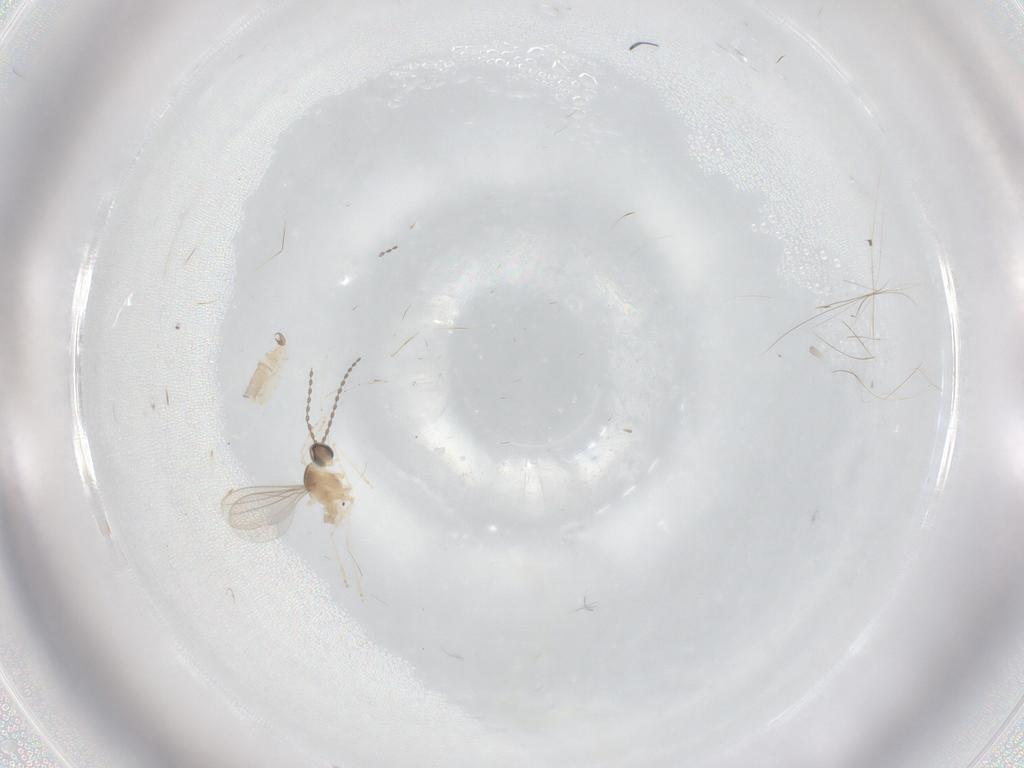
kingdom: Animalia
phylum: Arthropoda
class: Insecta
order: Diptera
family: Cecidomyiidae
